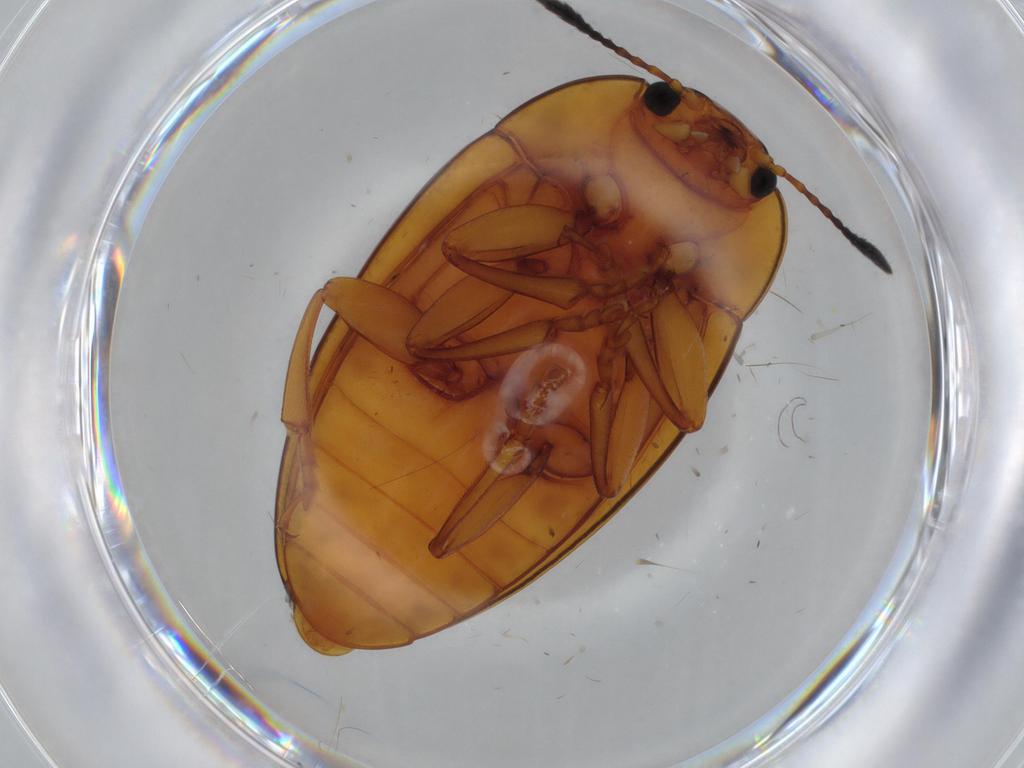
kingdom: Animalia
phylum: Arthropoda
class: Insecta
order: Coleoptera
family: Erotylidae
